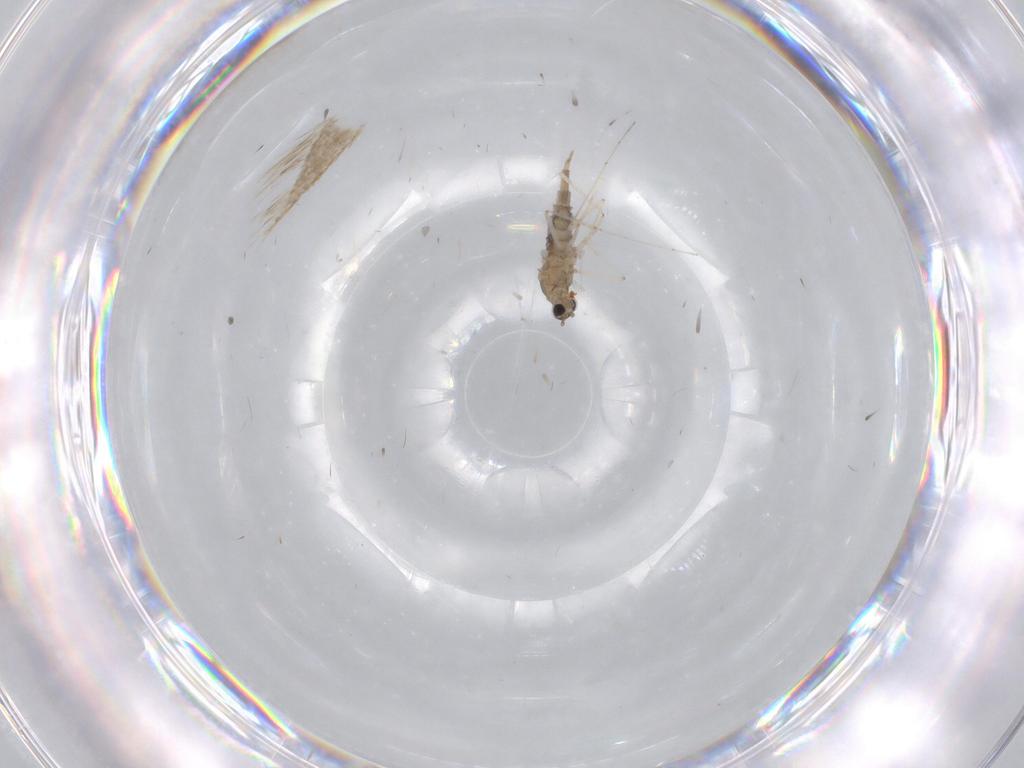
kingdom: Animalia
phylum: Arthropoda
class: Insecta
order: Diptera
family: Cecidomyiidae
